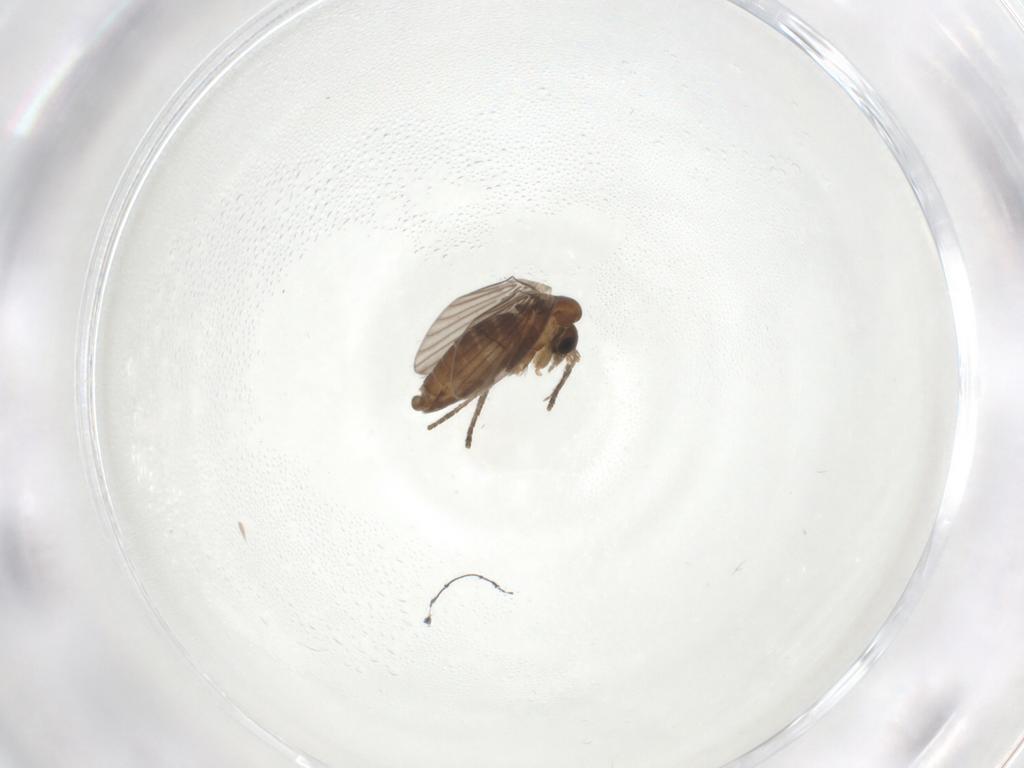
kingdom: Animalia
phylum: Arthropoda
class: Insecta
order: Diptera
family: Psychodidae
